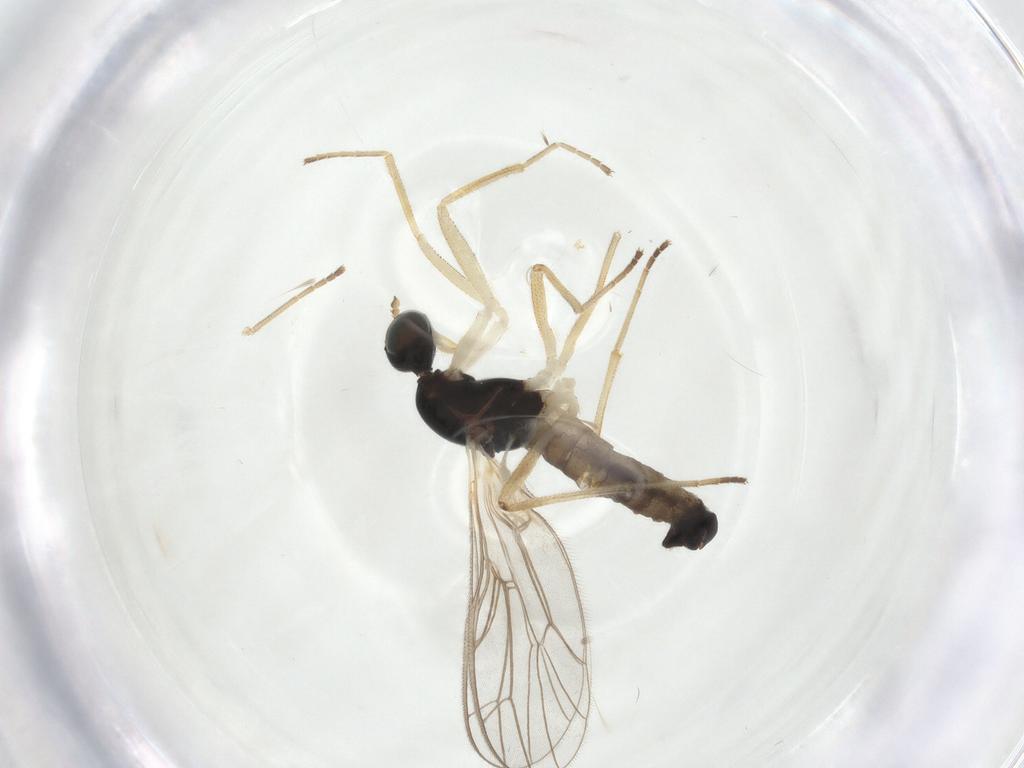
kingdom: Animalia
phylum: Arthropoda
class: Insecta
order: Diptera
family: Empididae
